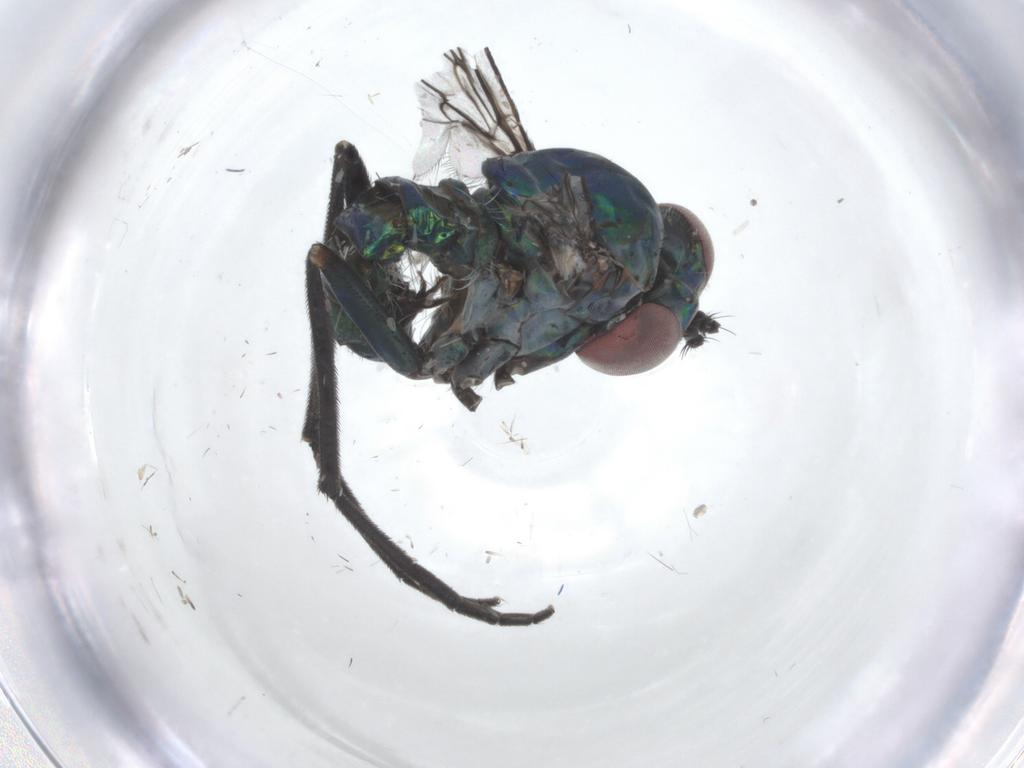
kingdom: Animalia
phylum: Arthropoda
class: Insecta
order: Diptera
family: Dolichopodidae
